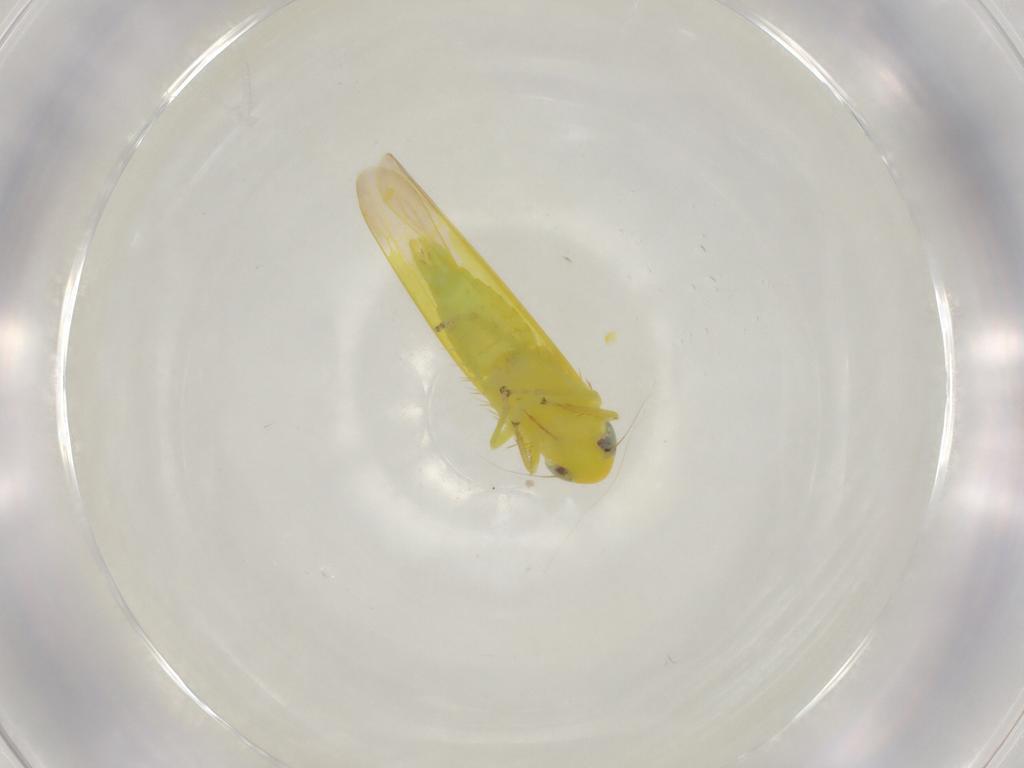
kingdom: Animalia
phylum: Arthropoda
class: Insecta
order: Hemiptera
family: Cicadellidae
